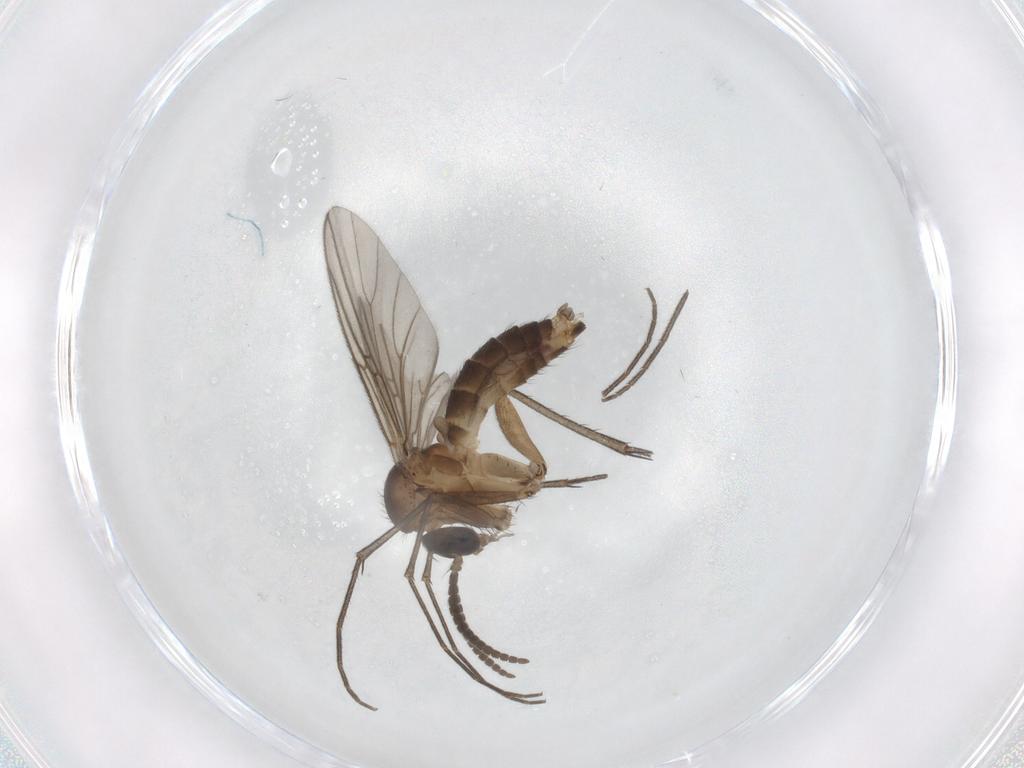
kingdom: Animalia
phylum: Arthropoda
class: Insecta
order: Diptera
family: Mycetophilidae
